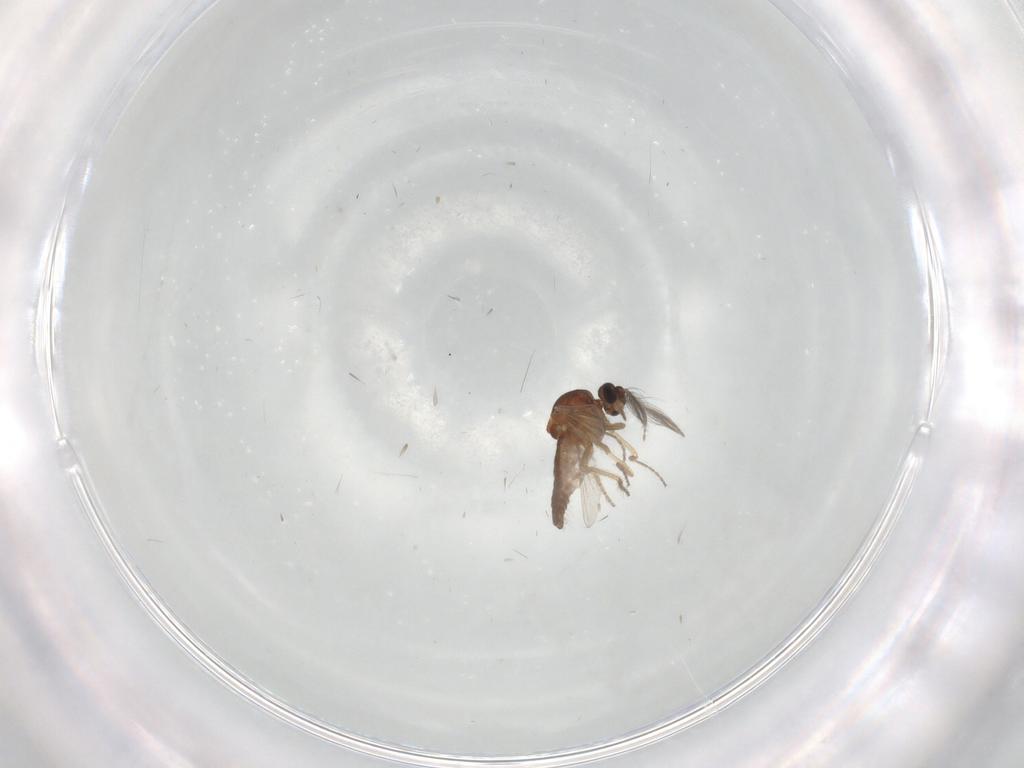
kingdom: Animalia
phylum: Arthropoda
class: Insecta
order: Diptera
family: Ceratopogonidae
